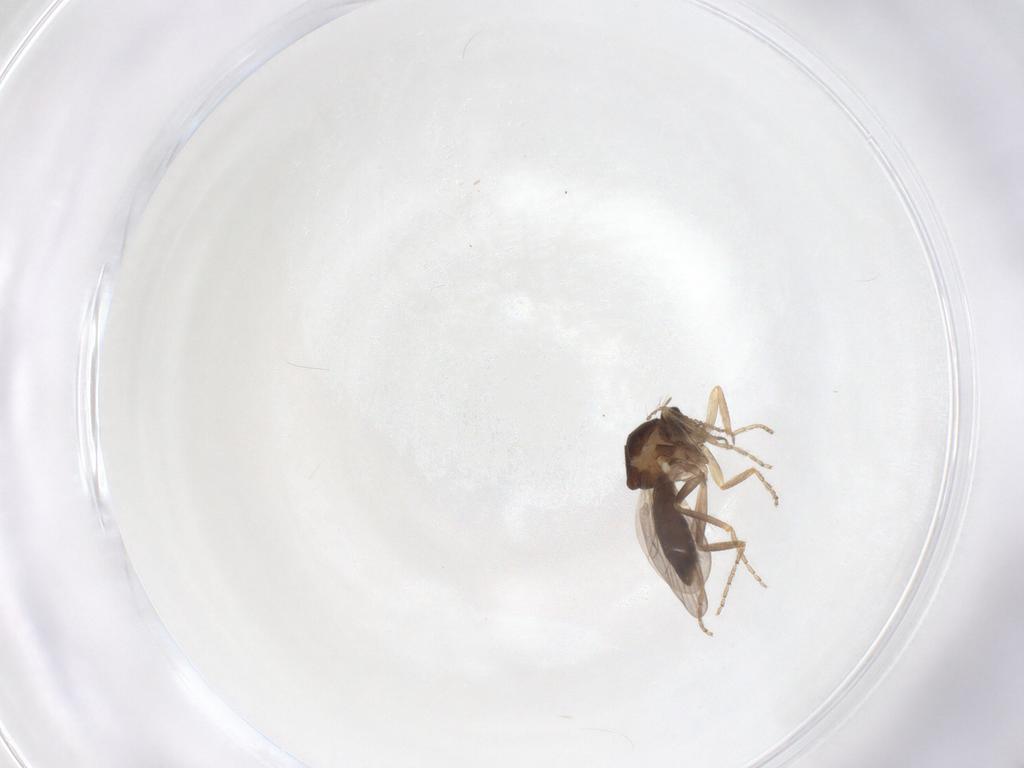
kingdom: Animalia
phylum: Arthropoda
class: Insecta
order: Diptera
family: Ceratopogonidae
